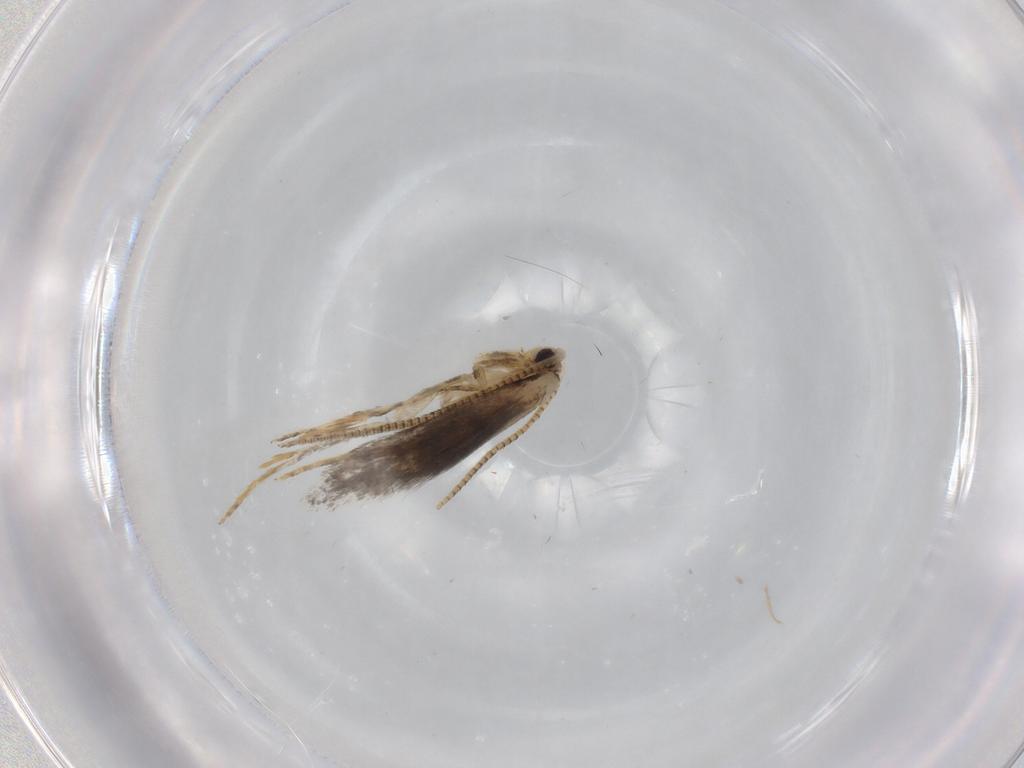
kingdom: Animalia
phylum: Arthropoda
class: Insecta
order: Lepidoptera
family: Tineidae
